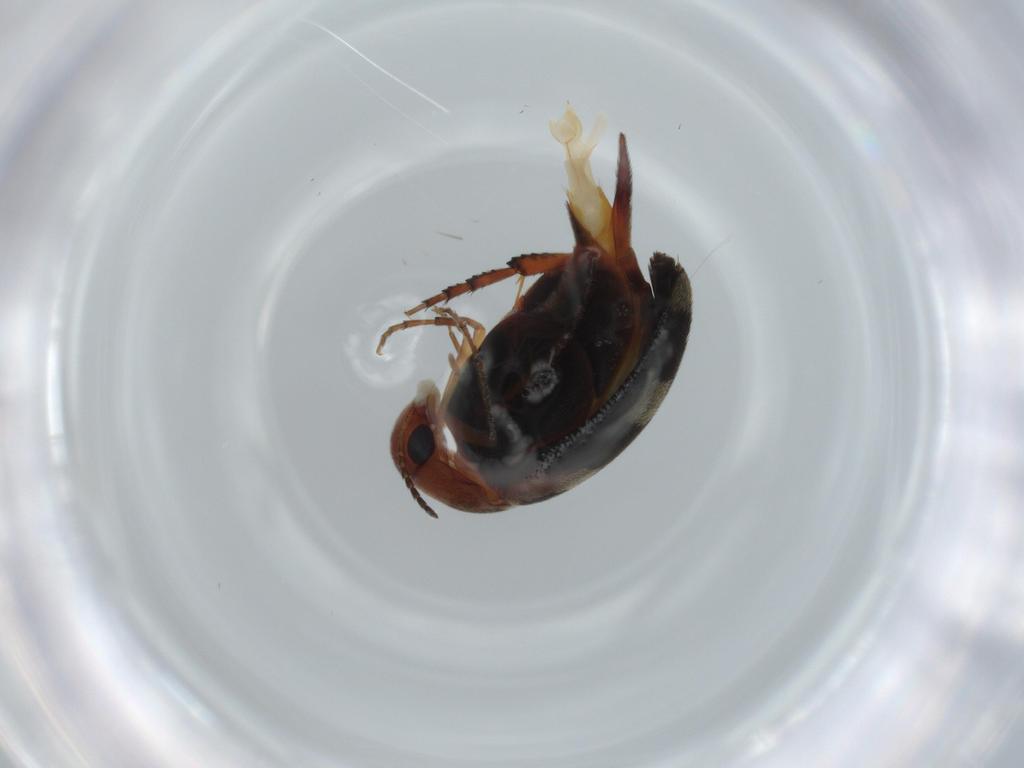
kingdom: Animalia
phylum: Arthropoda
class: Insecta
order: Coleoptera
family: Mordellidae
